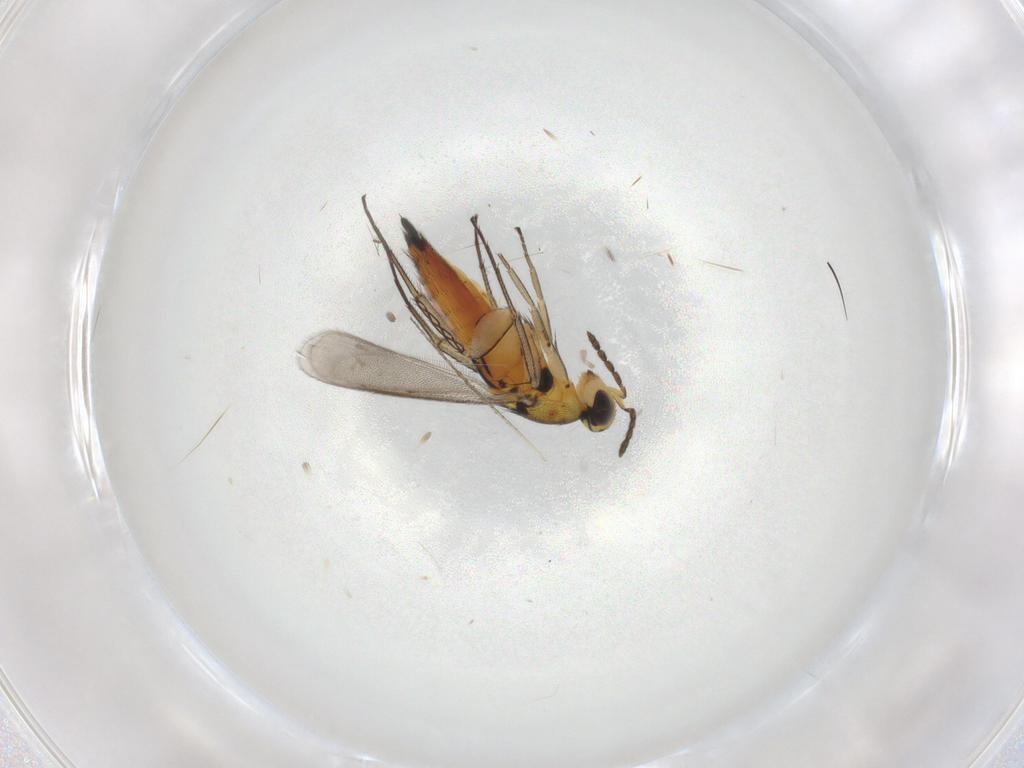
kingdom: Animalia
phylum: Arthropoda
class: Insecta
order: Hymenoptera
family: Eulophidae
